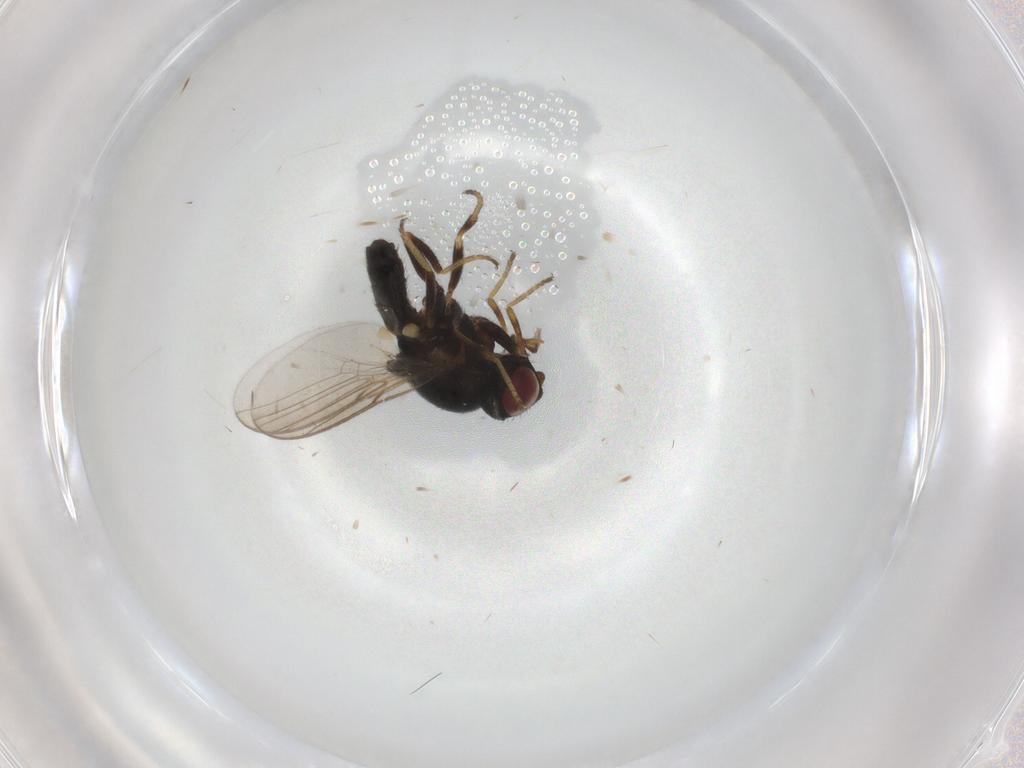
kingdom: Animalia
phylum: Arthropoda
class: Insecta
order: Diptera
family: Chloropidae
